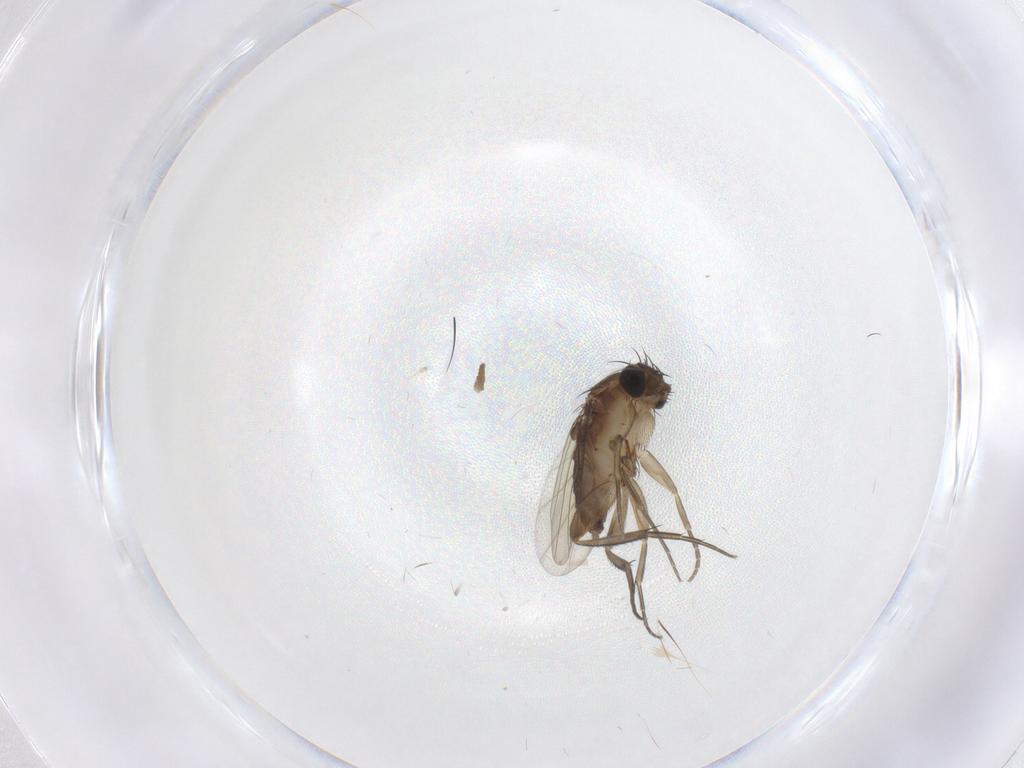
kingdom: Animalia
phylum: Arthropoda
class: Insecta
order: Diptera
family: Phoridae
